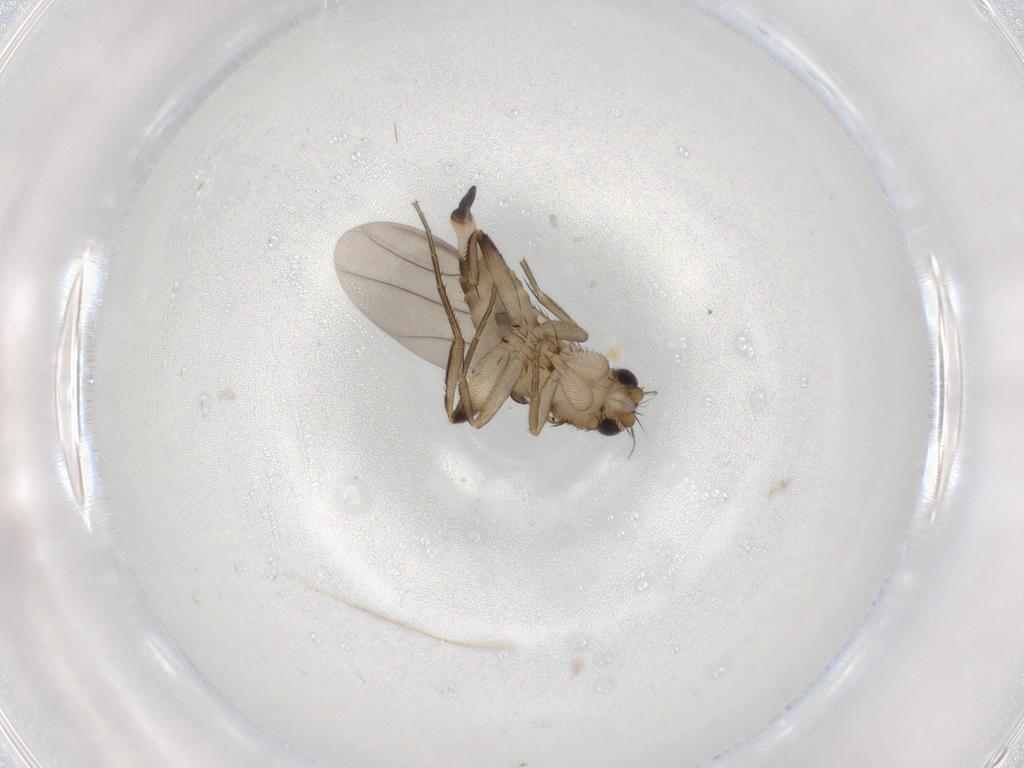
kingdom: Animalia
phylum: Arthropoda
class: Insecta
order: Diptera
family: Phoridae
